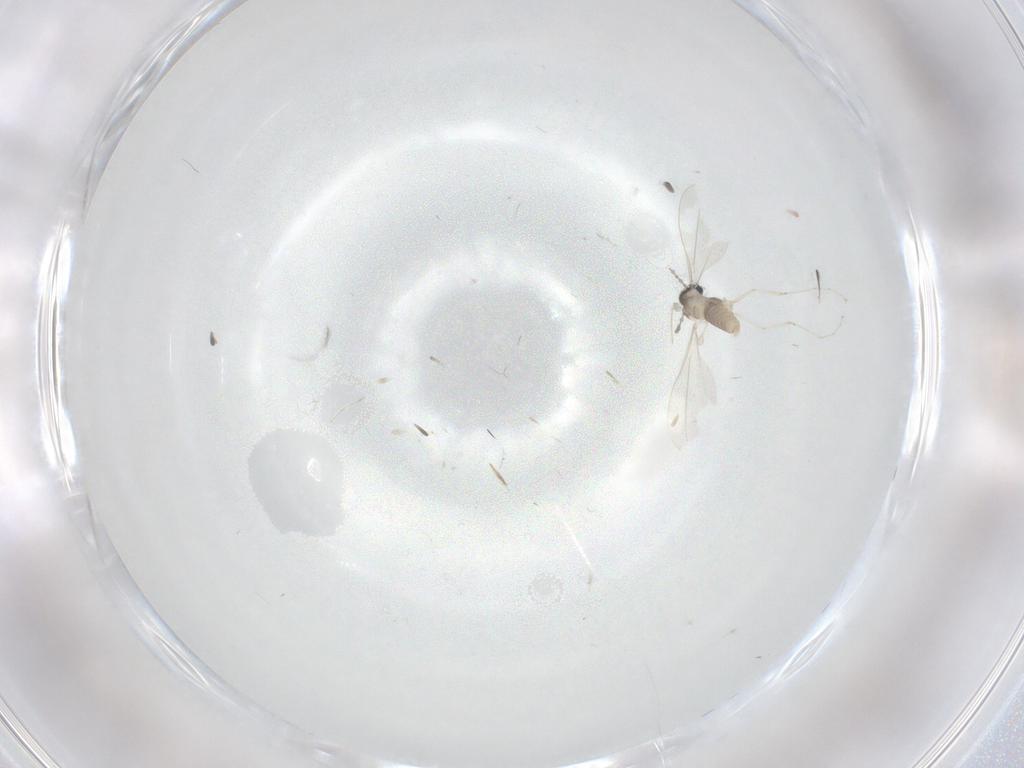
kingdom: Animalia
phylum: Arthropoda
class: Insecta
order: Diptera
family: Cecidomyiidae
